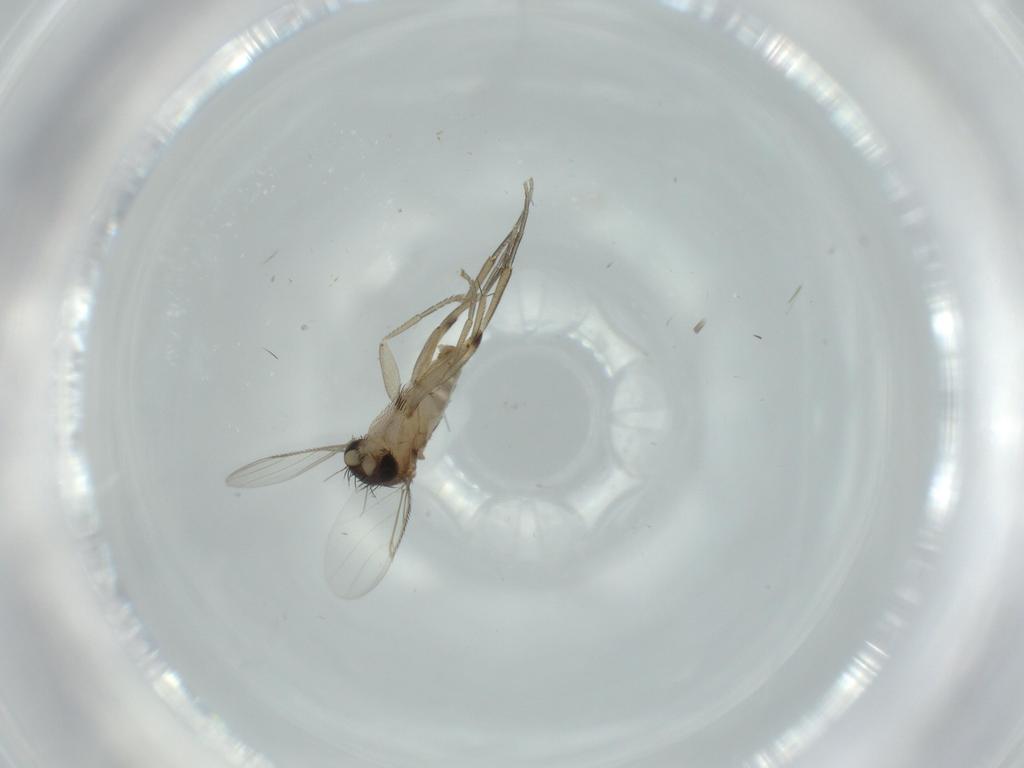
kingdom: Animalia
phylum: Arthropoda
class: Insecta
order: Diptera
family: Phoridae
